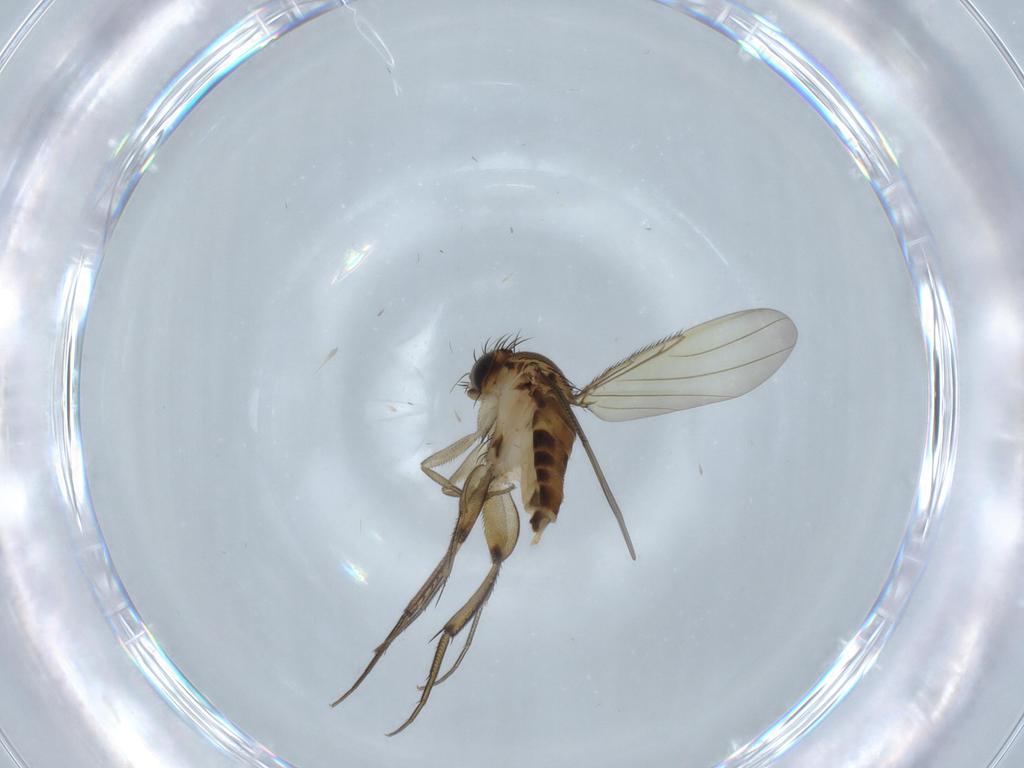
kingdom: Animalia
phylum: Arthropoda
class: Insecta
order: Diptera
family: Phoridae
